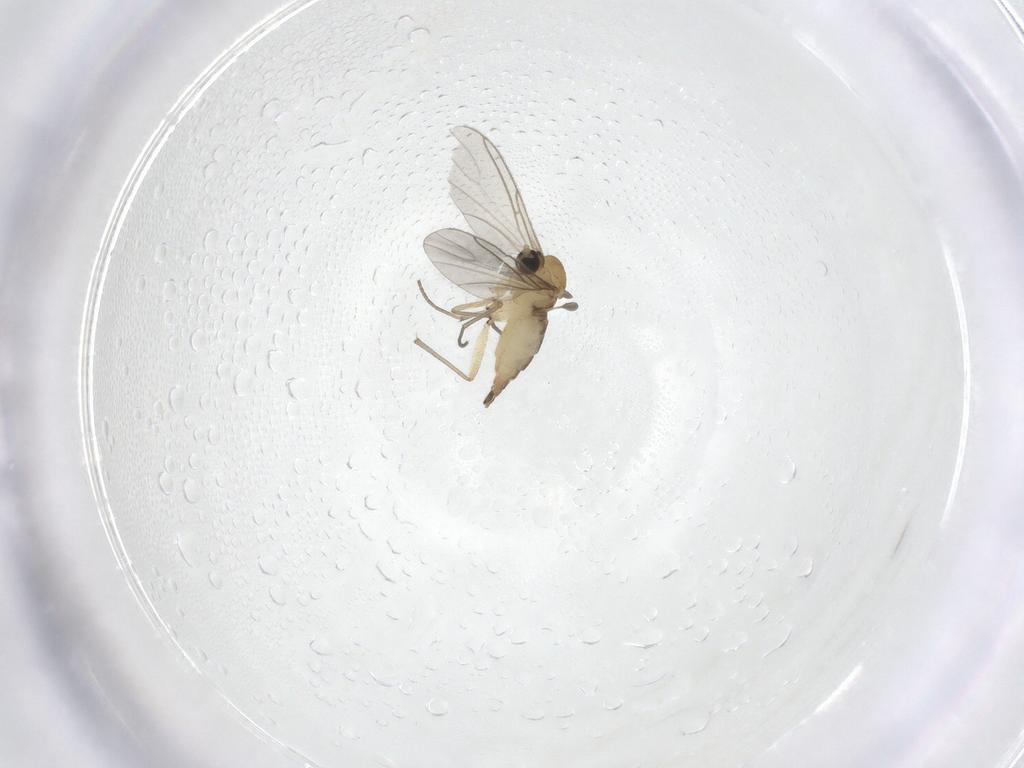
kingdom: Animalia
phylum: Arthropoda
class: Insecta
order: Diptera
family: Sciaridae
